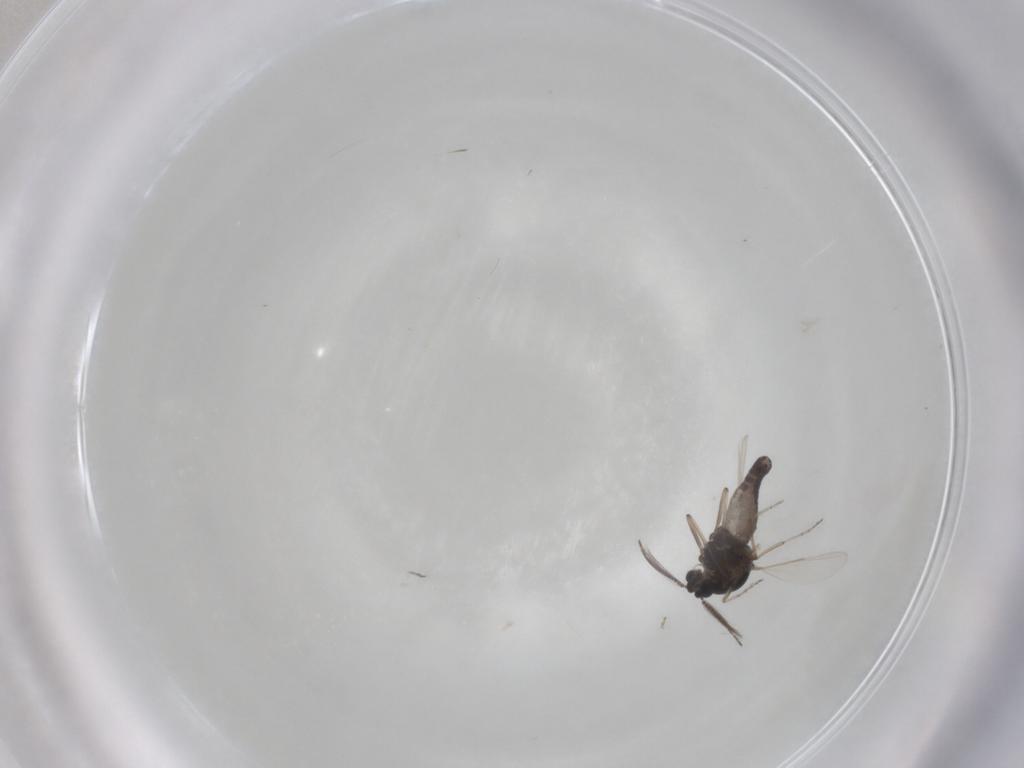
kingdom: Animalia
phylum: Arthropoda
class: Insecta
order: Diptera
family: Ceratopogonidae
